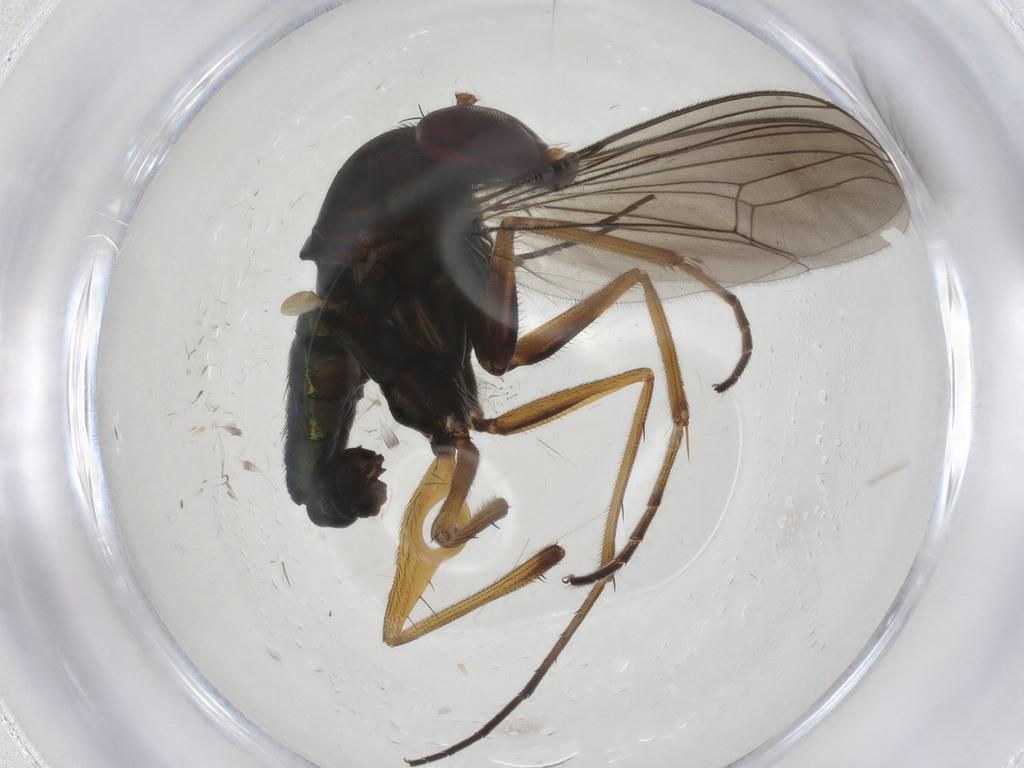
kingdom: Animalia
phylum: Arthropoda
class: Insecta
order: Diptera
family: Sciaridae
